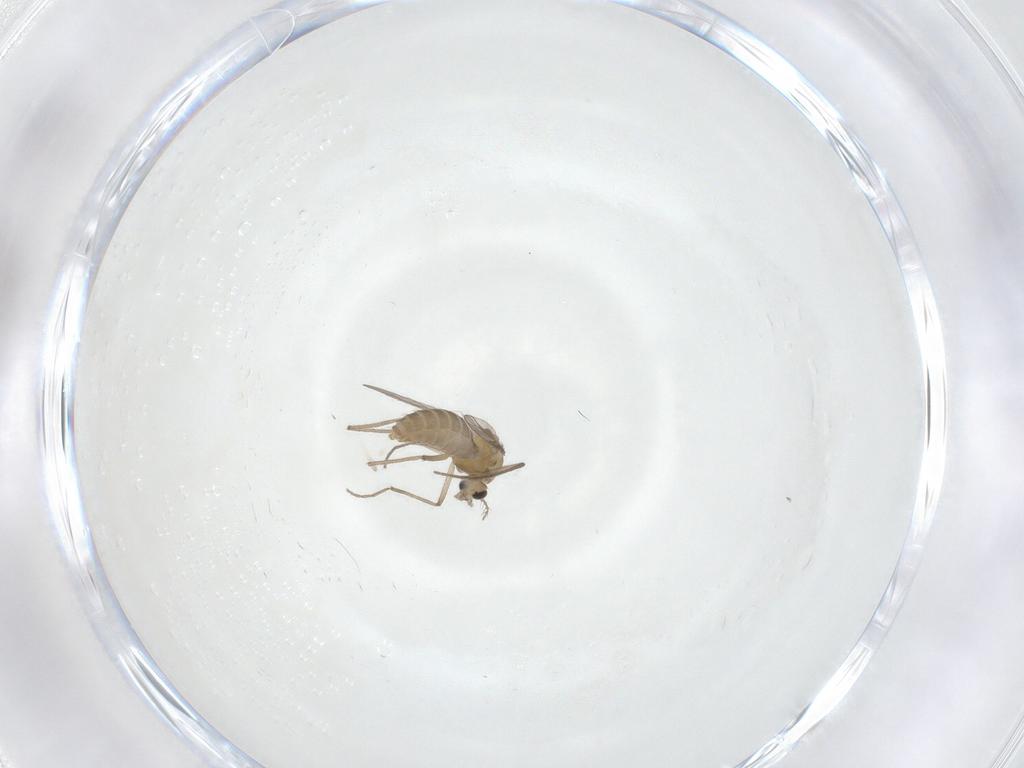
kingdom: Animalia
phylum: Arthropoda
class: Insecta
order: Diptera
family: Chironomidae
